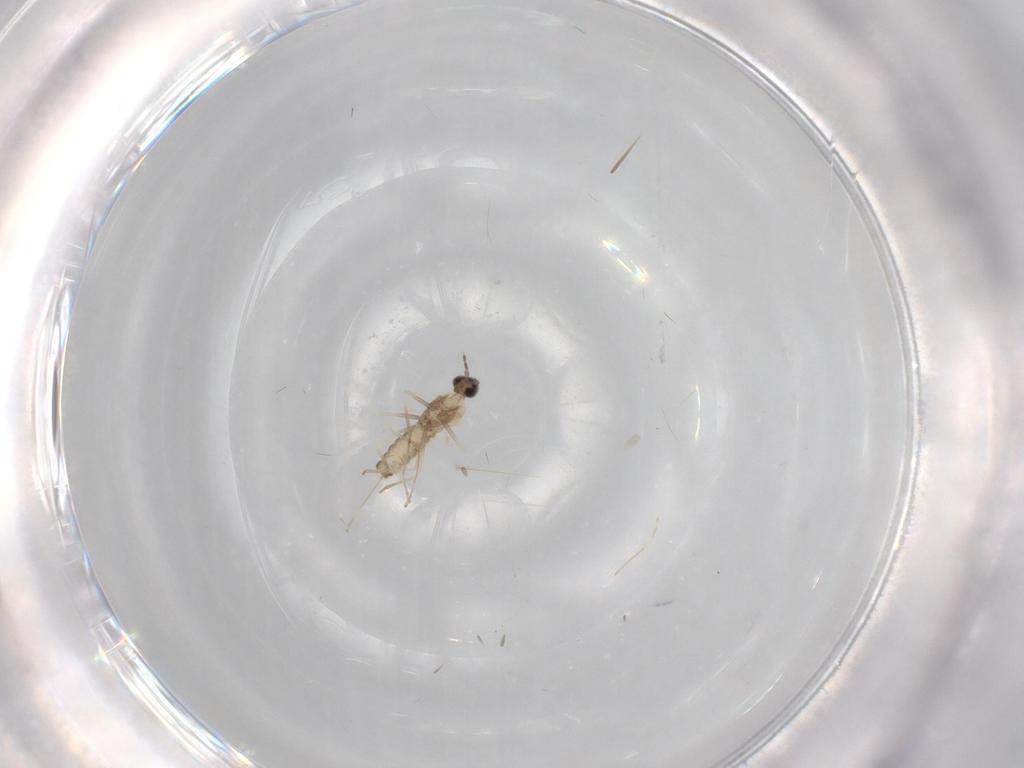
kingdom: Animalia
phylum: Arthropoda
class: Insecta
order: Diptera
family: Cecidomyiidae
